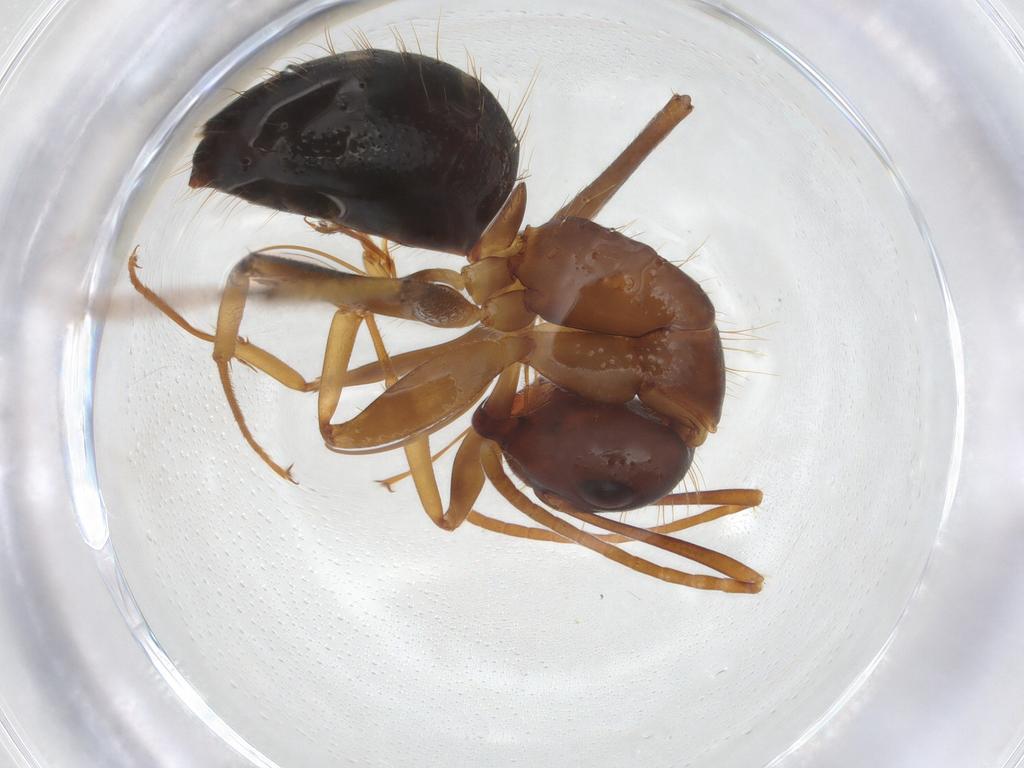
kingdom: Animalia
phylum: Arthropoda
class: Insecta
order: Hymenoptera
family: Formicidae
